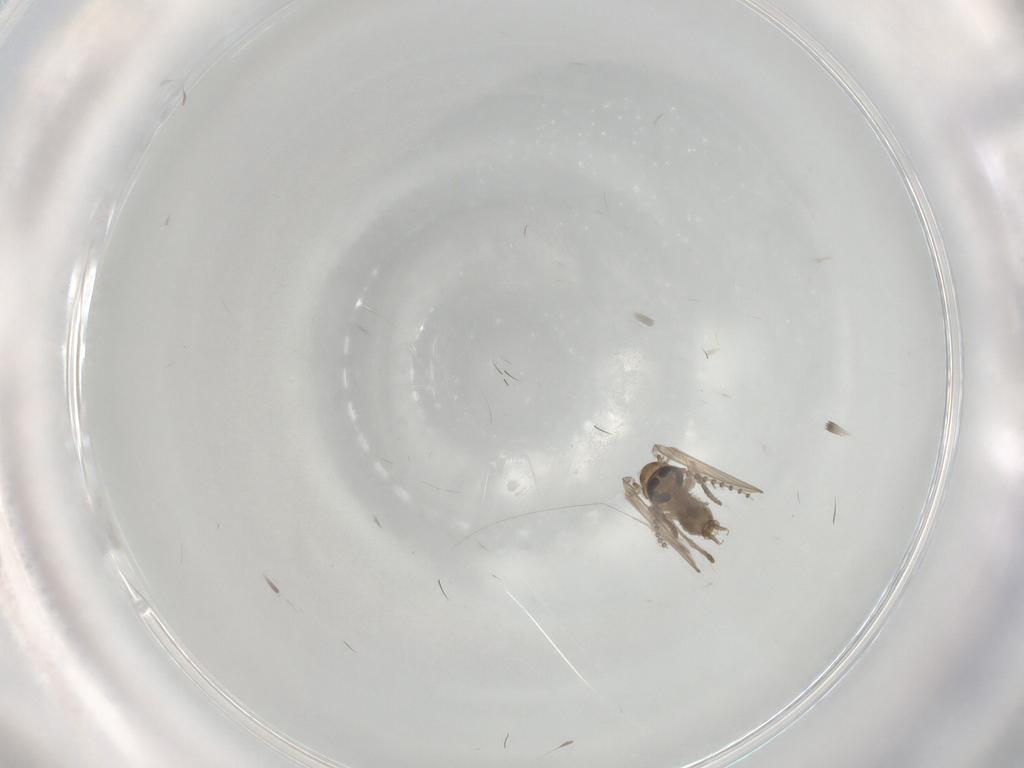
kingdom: Animalia
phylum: Arthropoda
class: Insecta
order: Diptera
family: Psychodidae
